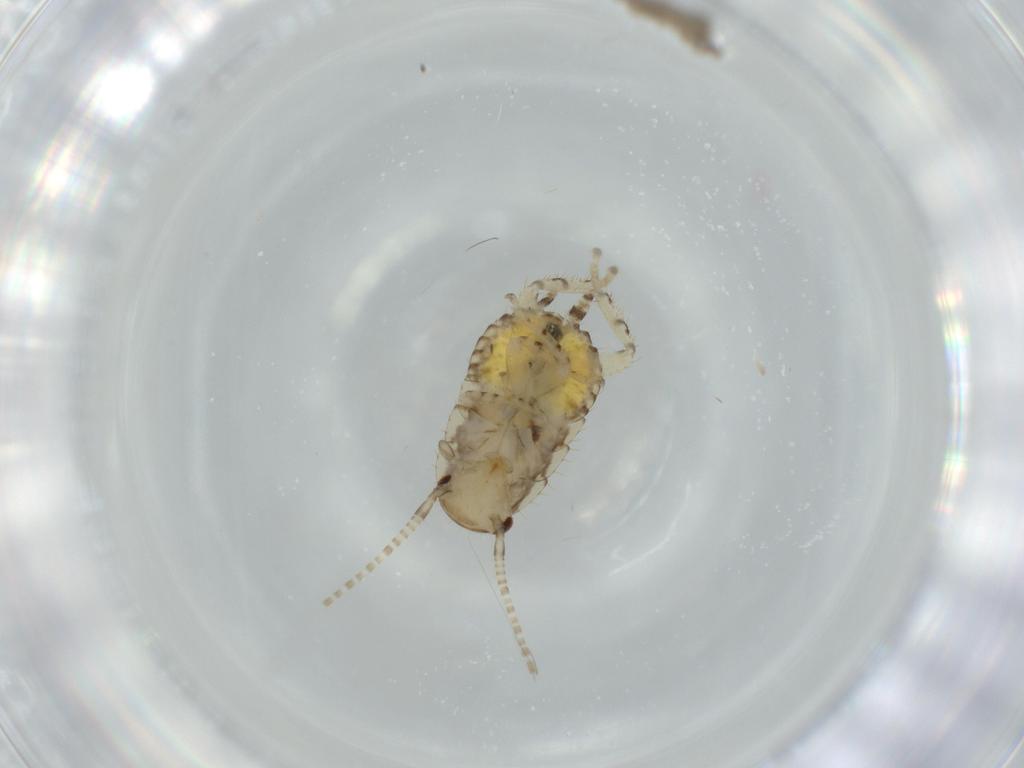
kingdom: Animalia
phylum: Arthropoda
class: Insecta
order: Blattodea
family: Ectobiidae
